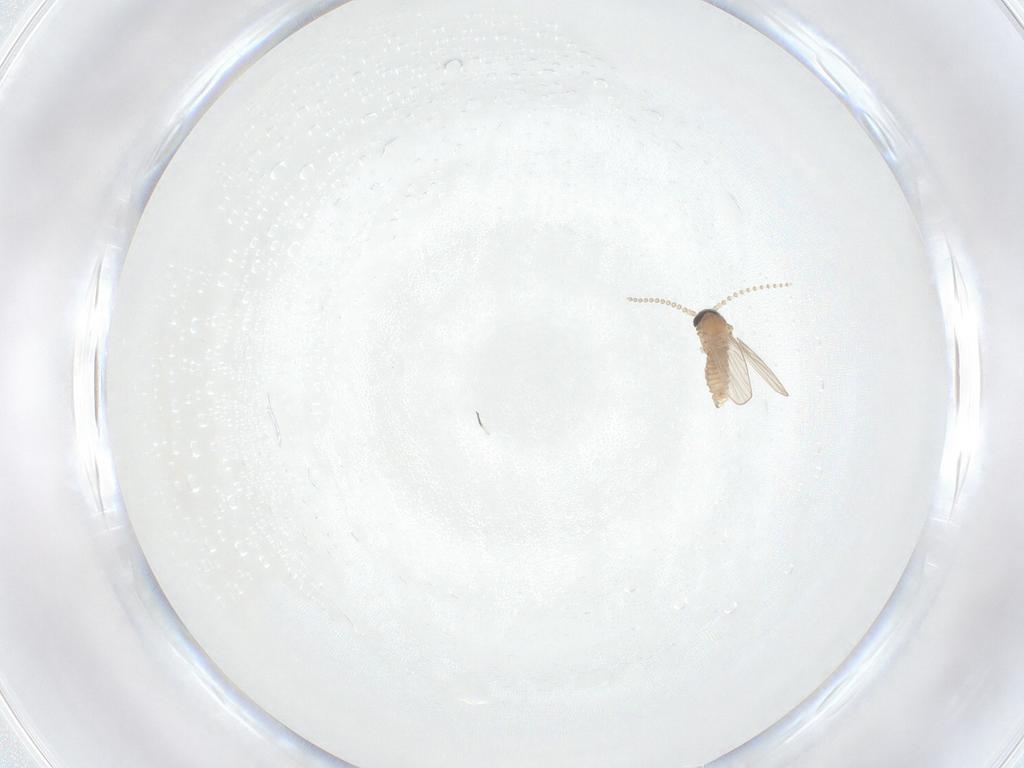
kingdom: Animalia
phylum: Arthropoda
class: Insecta
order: Diptera
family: Psychodidae
